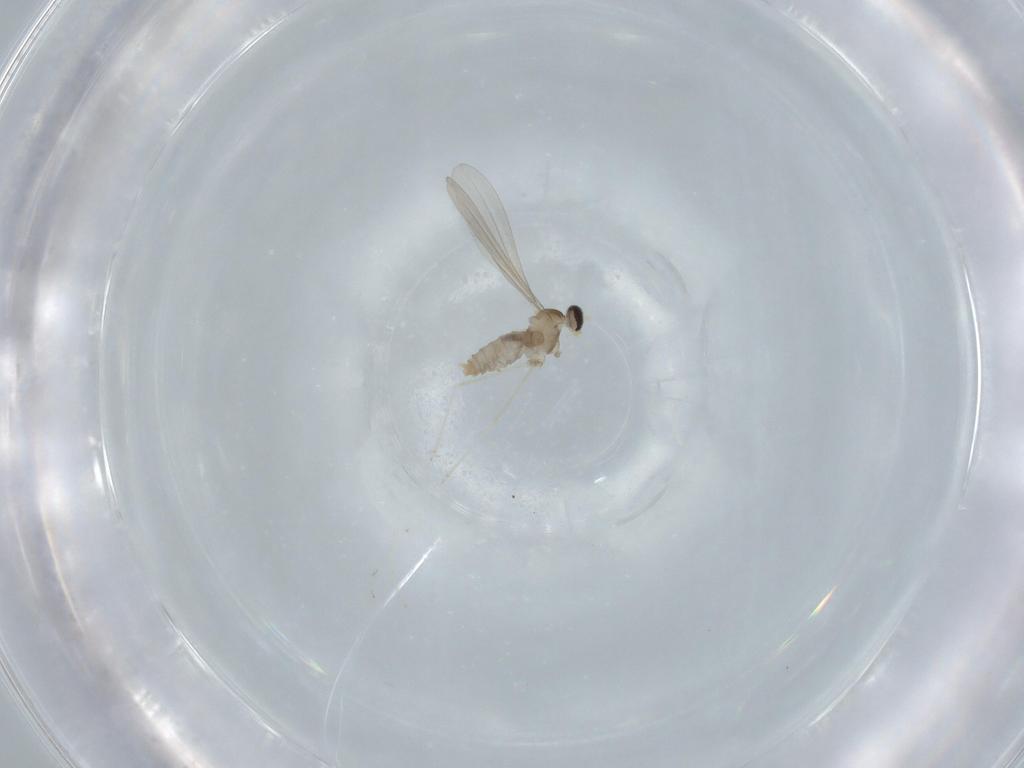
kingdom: Animalia
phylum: Arthropoda
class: Insecta
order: Diptera
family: Cecidomyiidae
